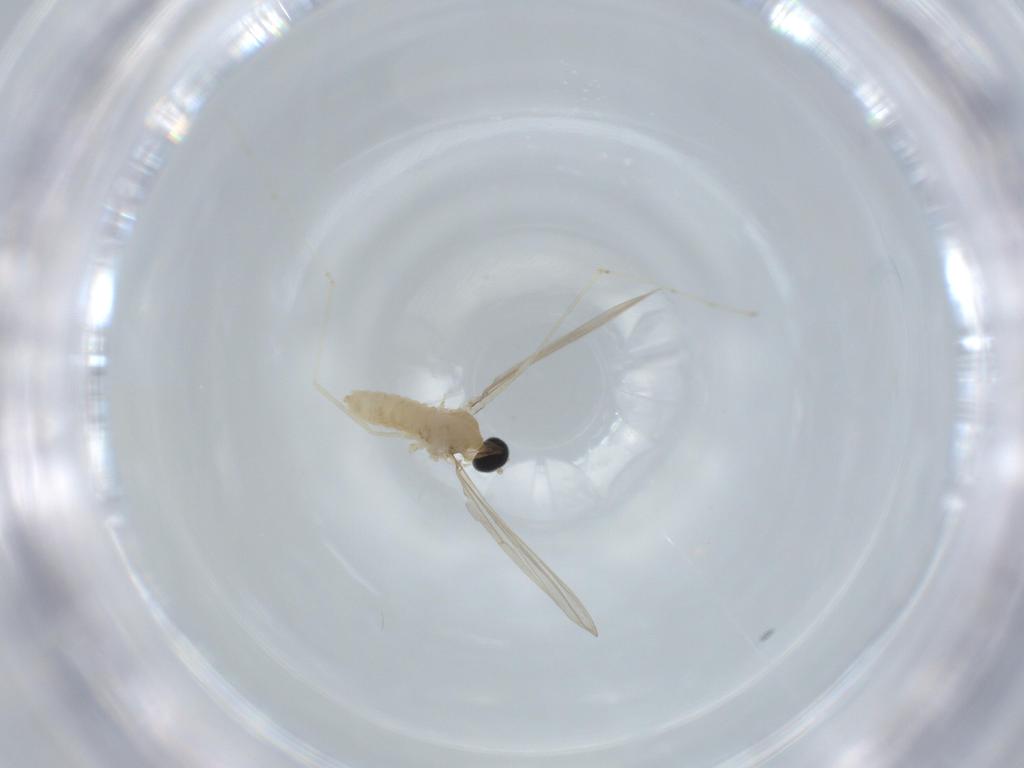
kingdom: Animalia
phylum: Arthropoda
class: Insecta
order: Diptera
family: Cecidomyiidae
